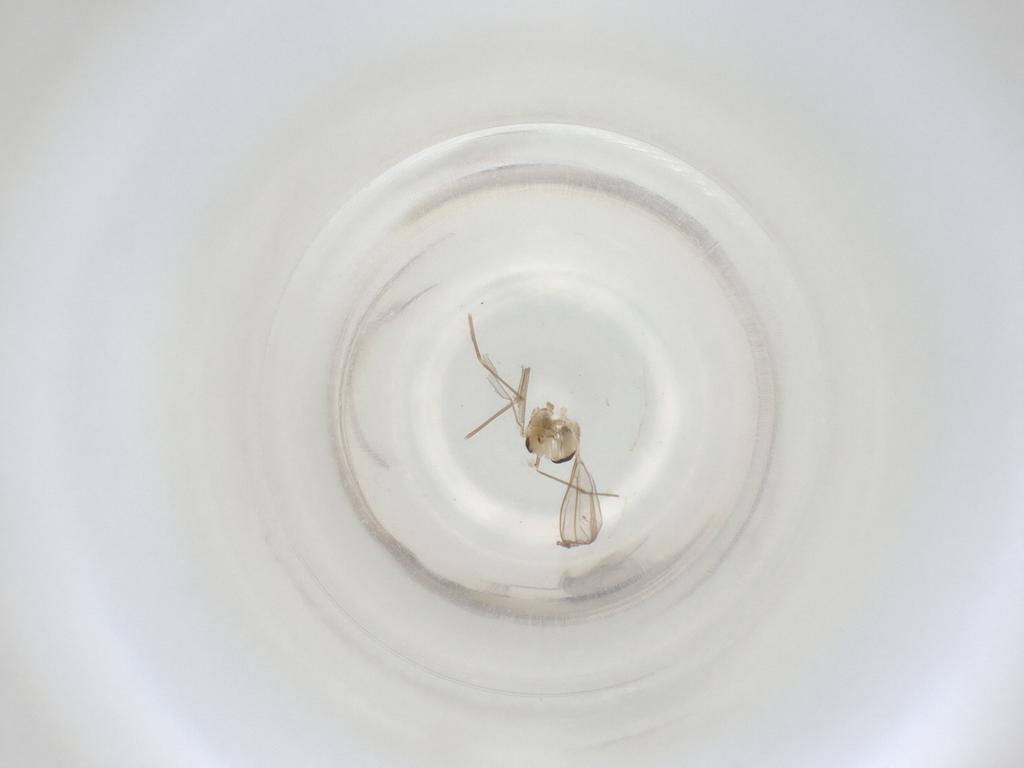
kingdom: Animalia
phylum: Arthropoda
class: Insecta
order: Diptera
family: Cecidomyiidae
